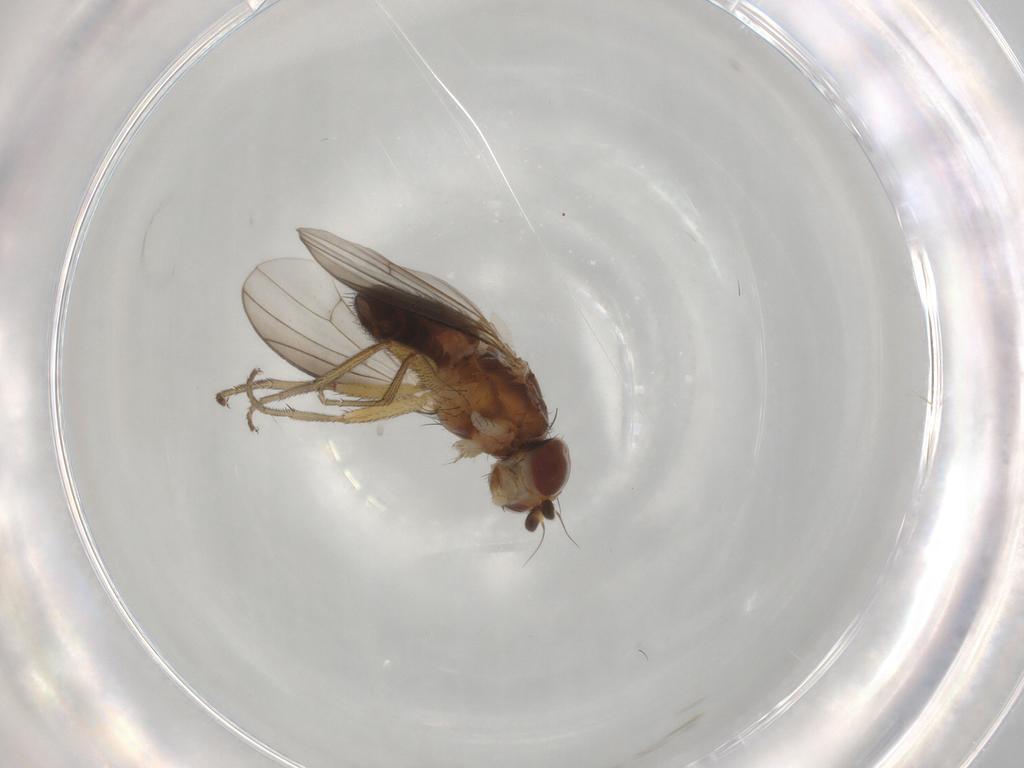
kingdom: Animalia
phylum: Arthropoda
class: Insecta
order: Diptera
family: Heleomyzidae
